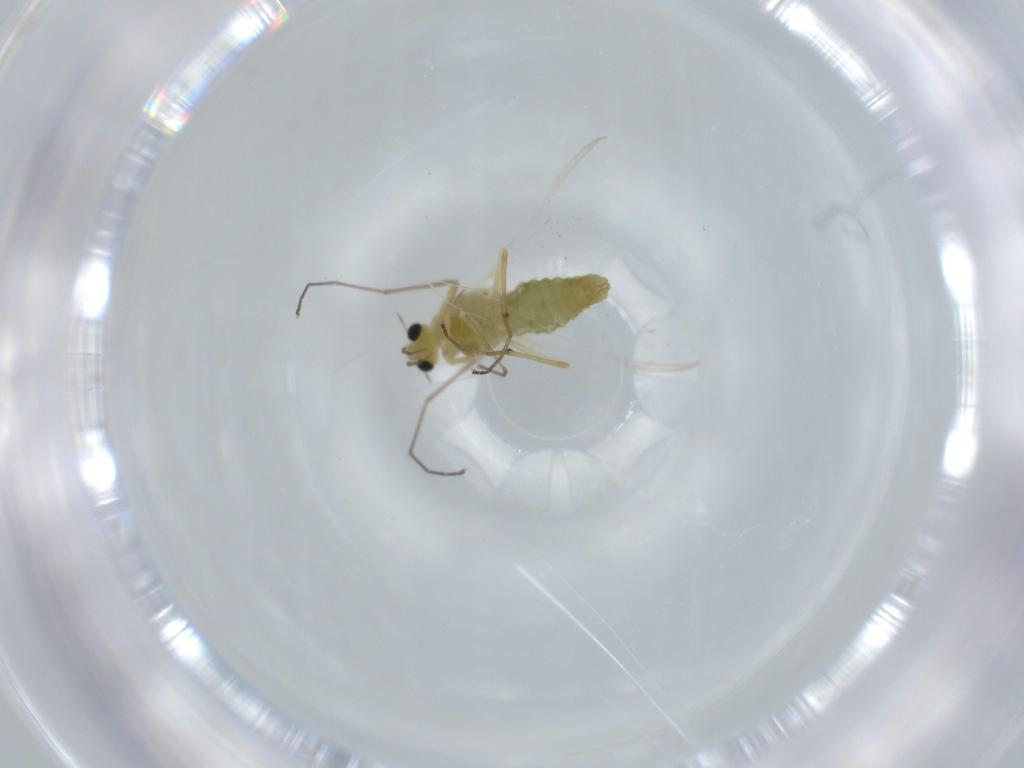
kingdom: Animalia
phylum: Arthropoda
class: Insecta
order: Diptera
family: Chironomidae
